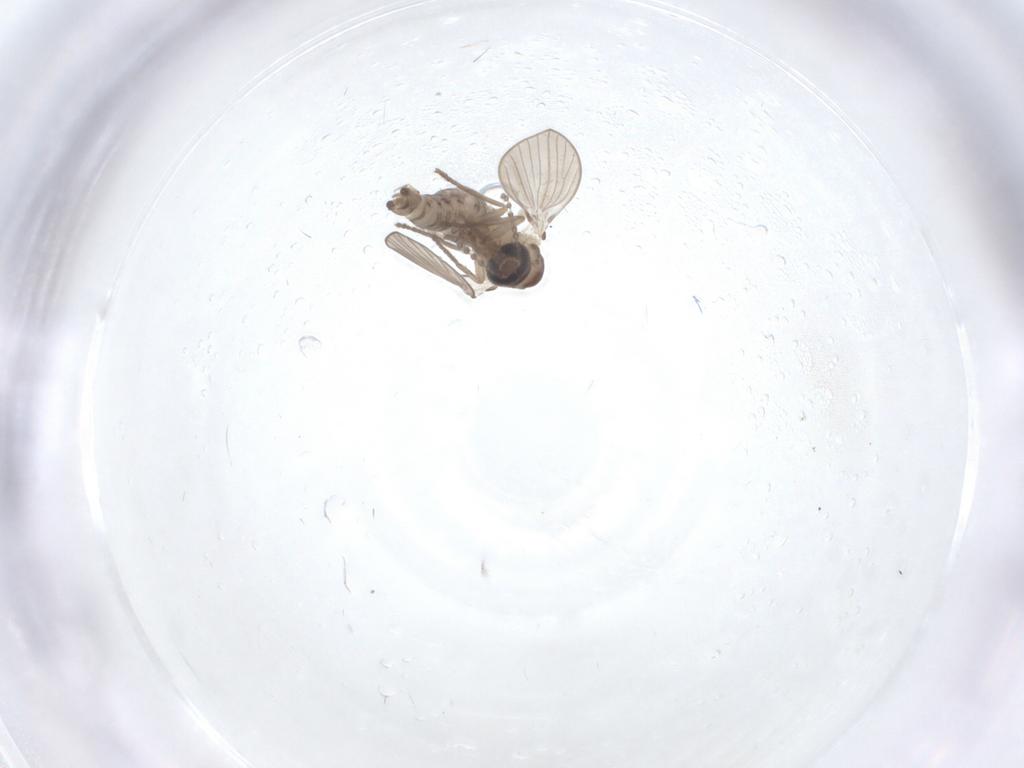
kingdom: Animalia
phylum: Arthropoda
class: Insecta
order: Diptera
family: Psychodidae
